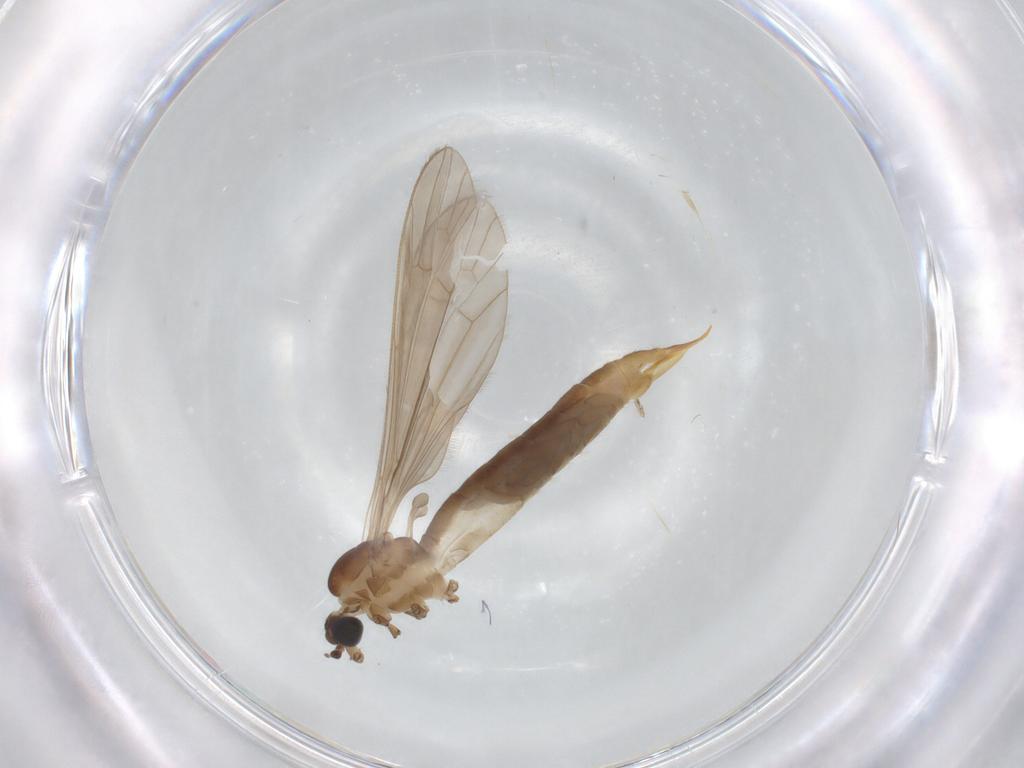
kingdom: Animalia
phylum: Arthropoda
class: Insecta
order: Diptera
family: Limoniidae
